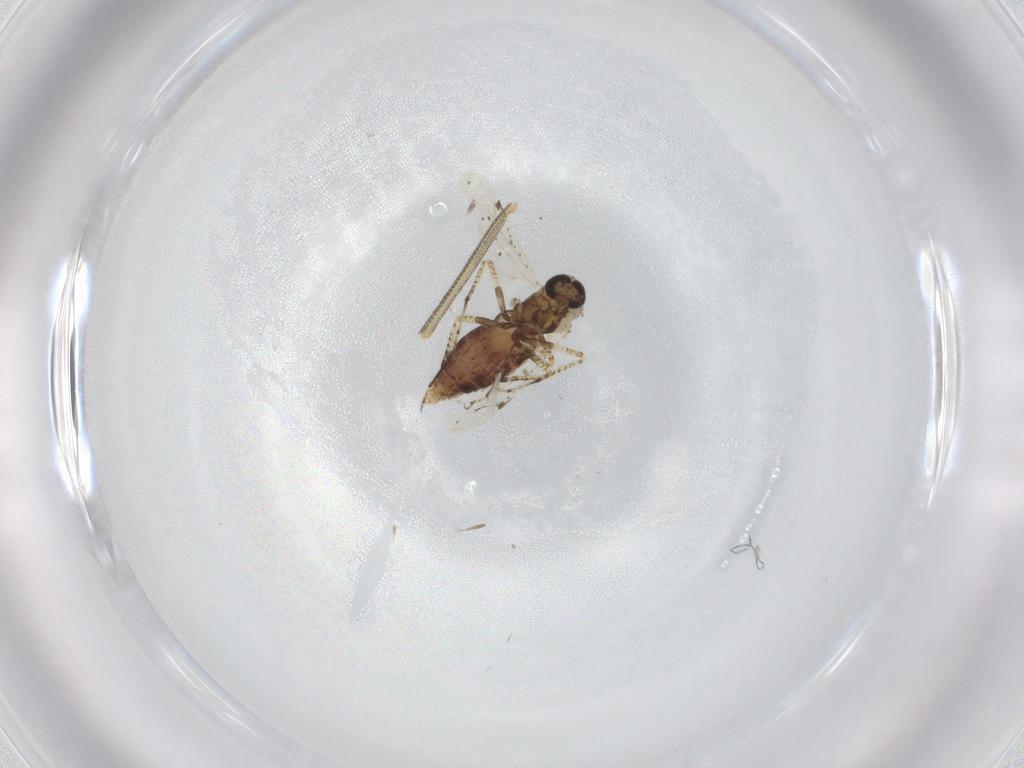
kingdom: Animalia
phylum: Arthropoda
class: Insecta
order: Diptera
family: Ceratopogonidae
